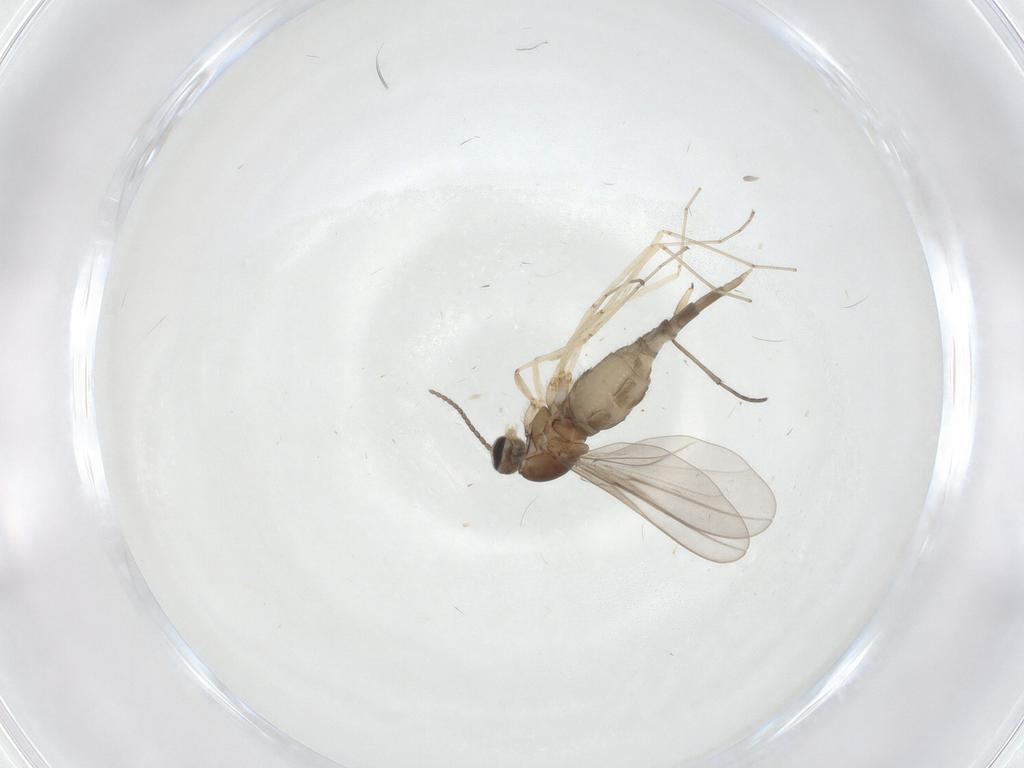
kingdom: Animalia
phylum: Arthropoda
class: Insecta
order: Diptera
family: Cecidomyiidae
